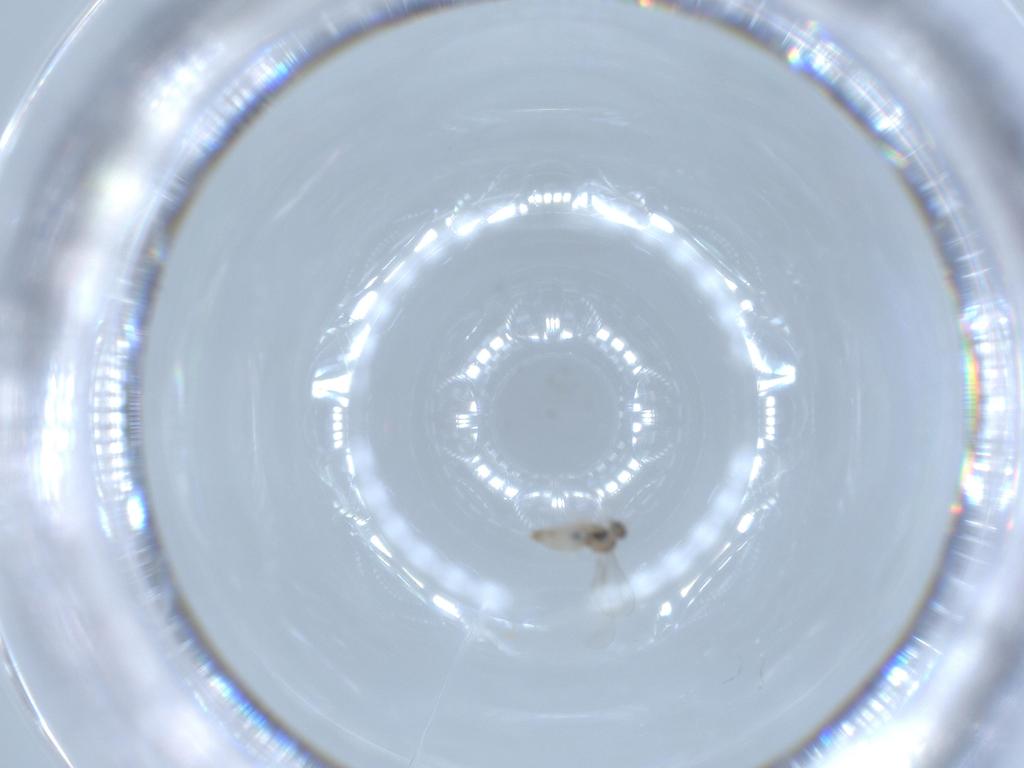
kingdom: Animalia
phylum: Arthropoda
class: Insecta
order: Diptera
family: Cecidomyiidae
